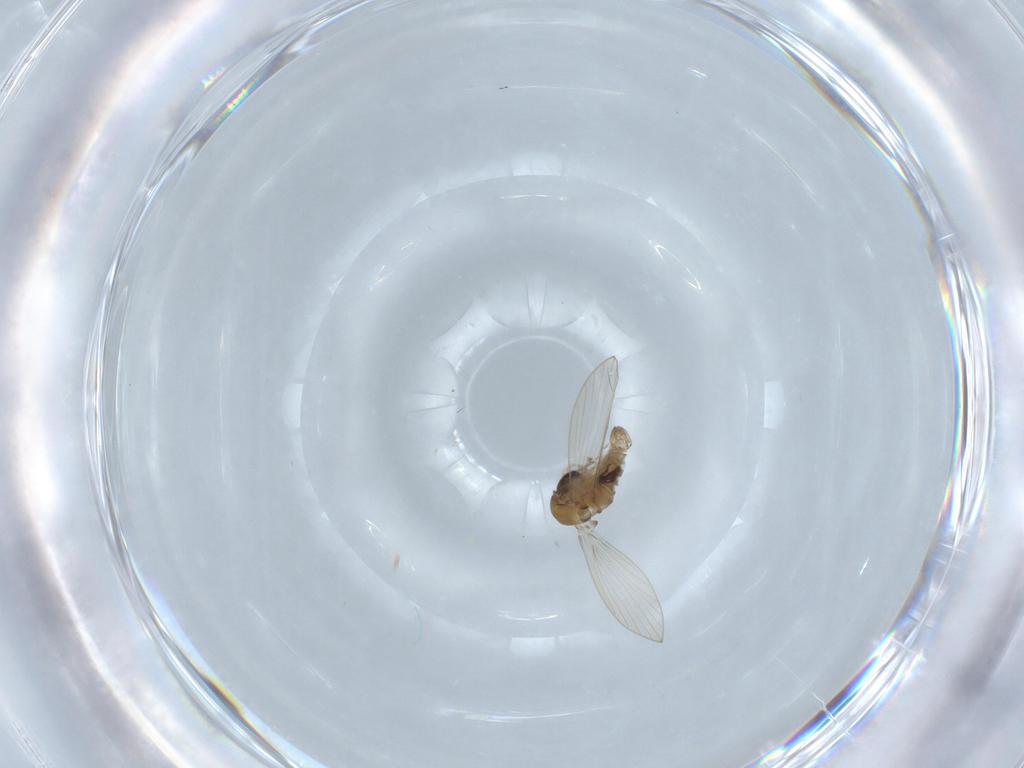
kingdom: Animalia
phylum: Arthropoda
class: Insecta
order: Diptera
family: Psychodidae
